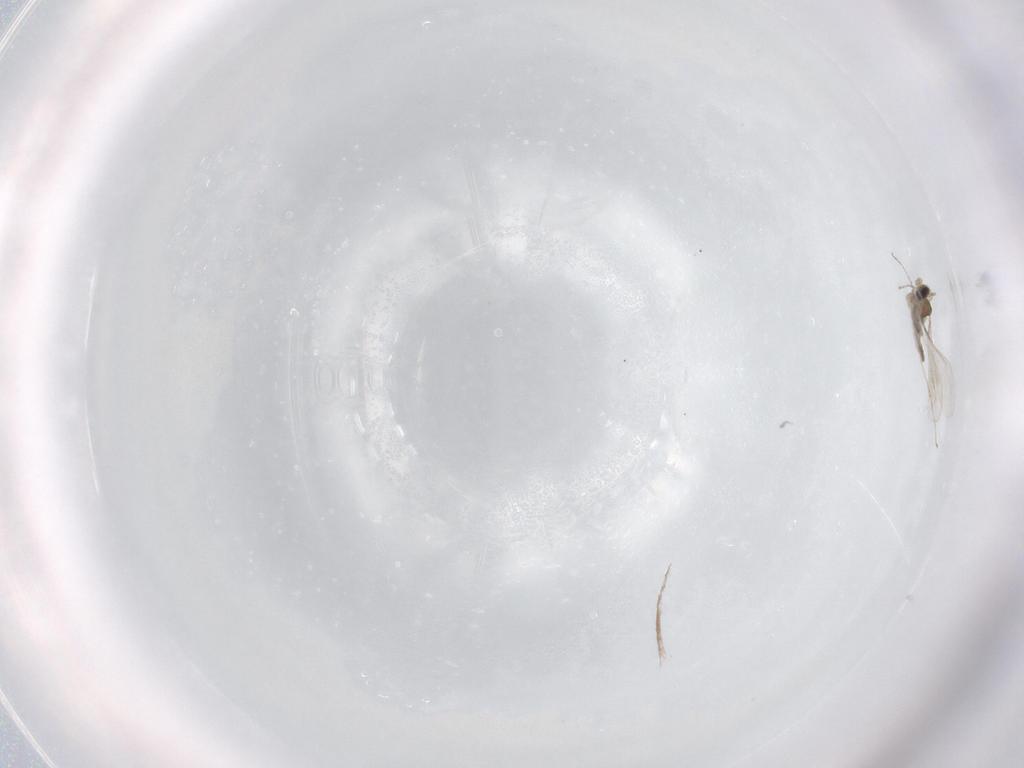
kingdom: Animalia
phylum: Arthropoda
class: Insecta
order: Diptera
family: Cecidomyiidae
